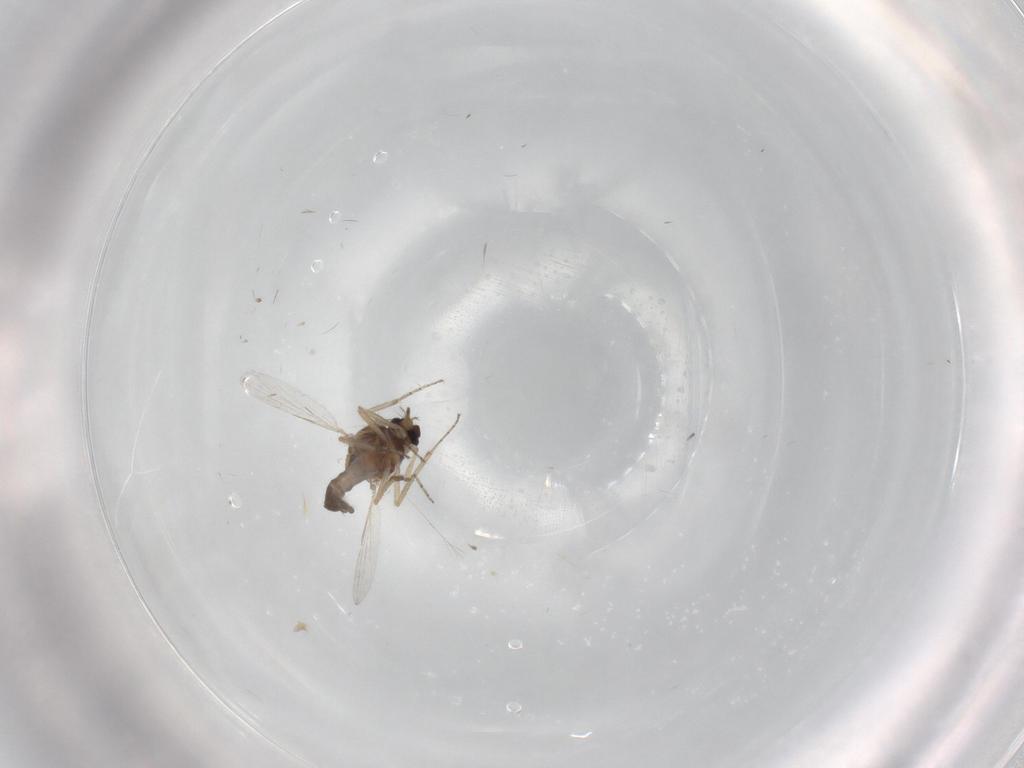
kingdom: Animalia
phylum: Arthropoda
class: Insecta
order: Diptera
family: Ceratopogonidae
